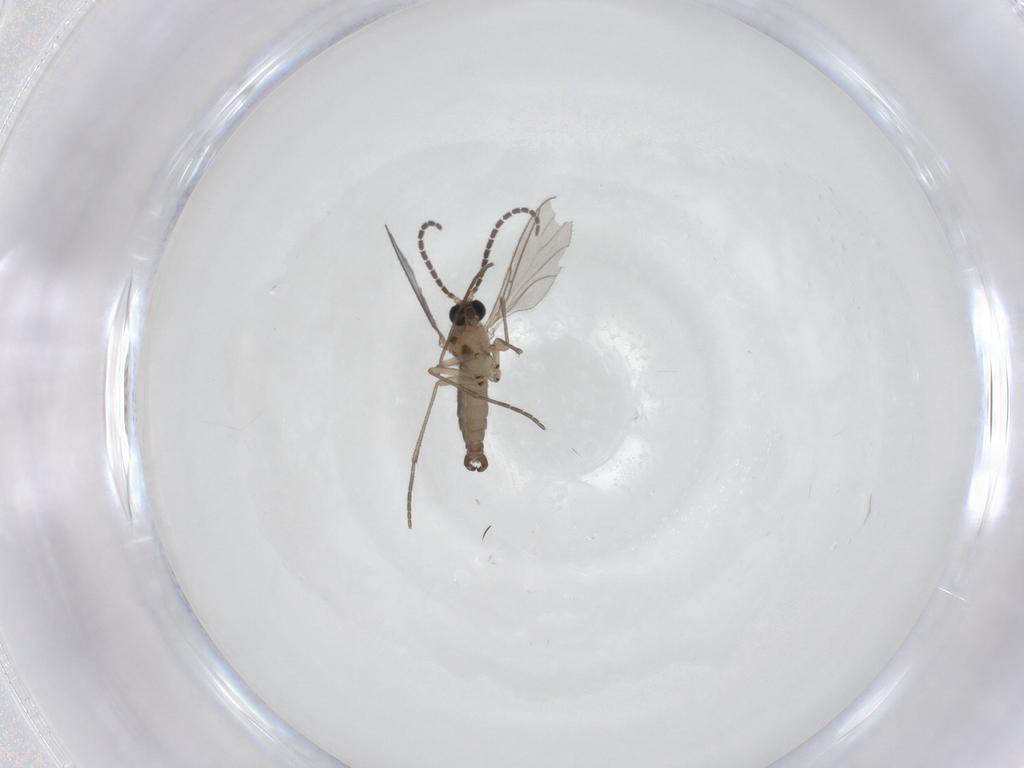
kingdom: Animalia
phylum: Arthropoda
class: Insecta
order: Diptera
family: Sciaridae
